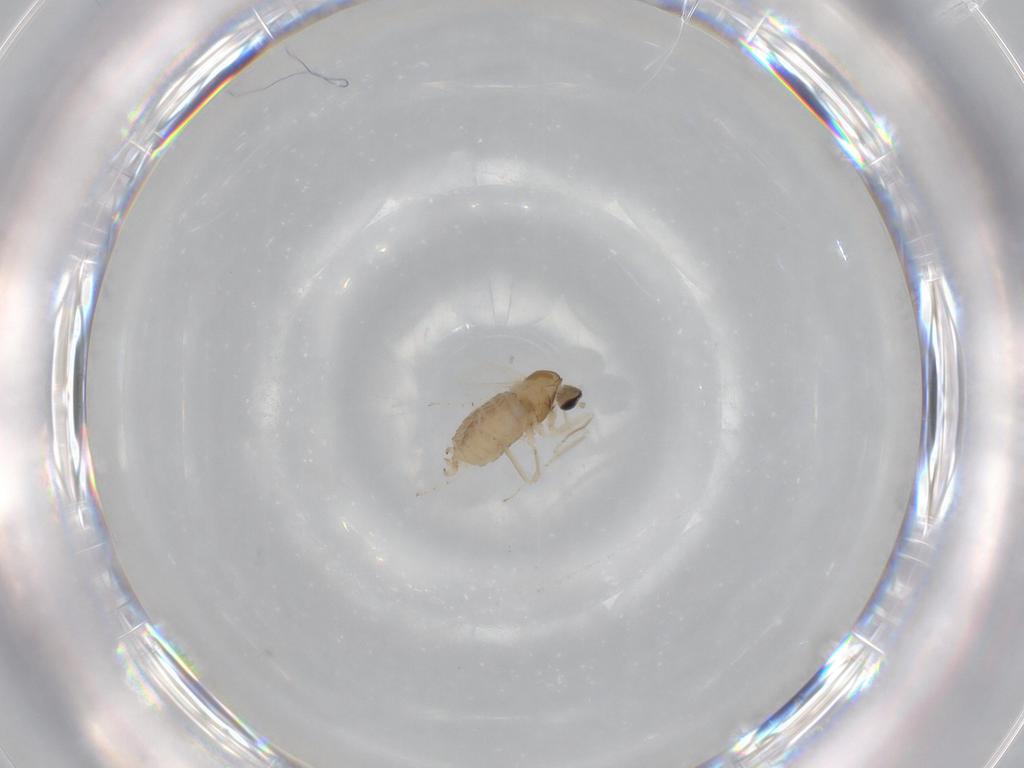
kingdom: Animalia
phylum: Arthropoda
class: Insecta
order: Diptera
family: Cecidomyiidae
